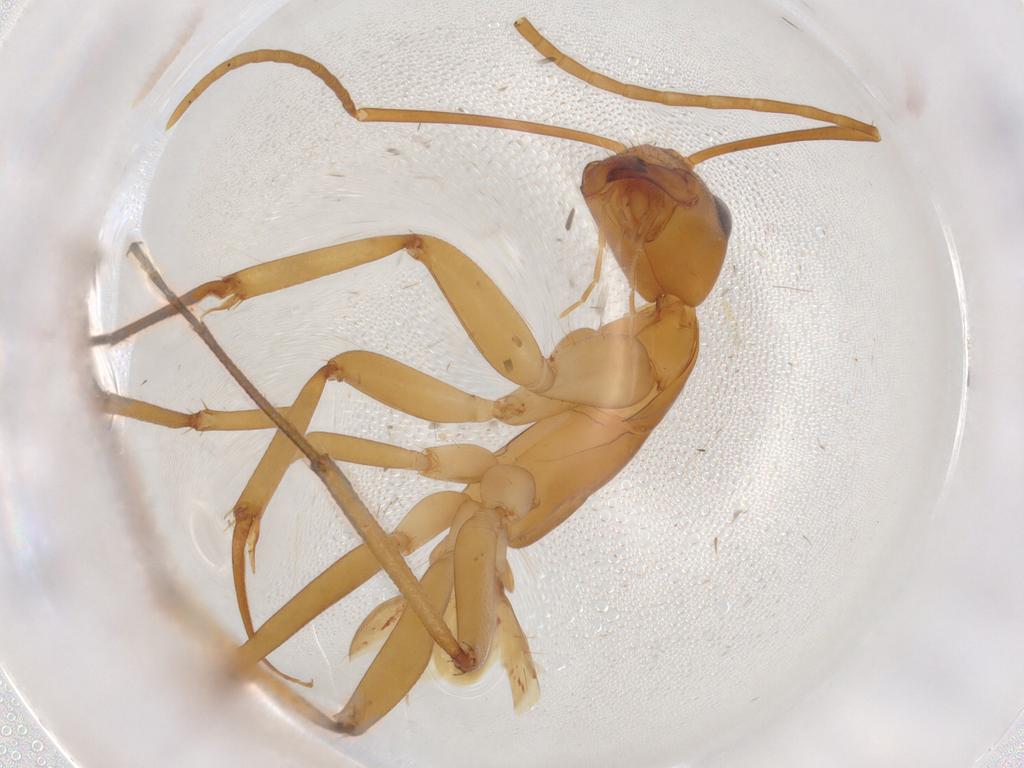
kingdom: Animalia
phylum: Arthropoda
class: Insecta
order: Hymenoptera
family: Formicidae
